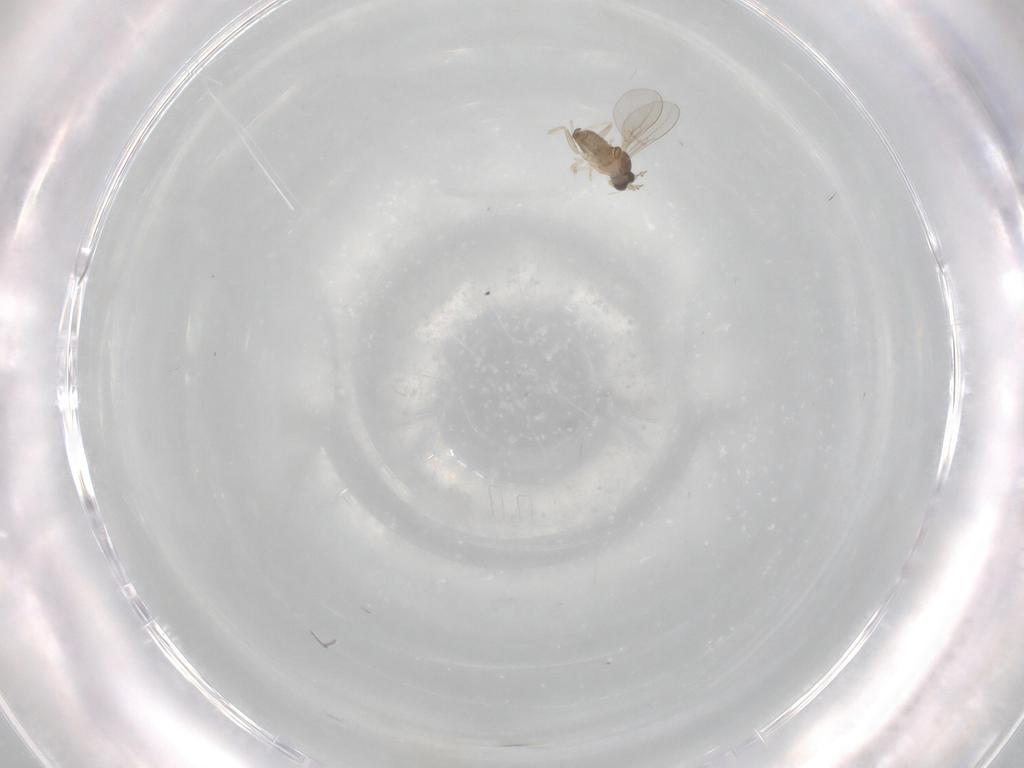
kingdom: Animalia
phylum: Arthropoda
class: Insecta
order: Diptera
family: Cecidomyiidae
